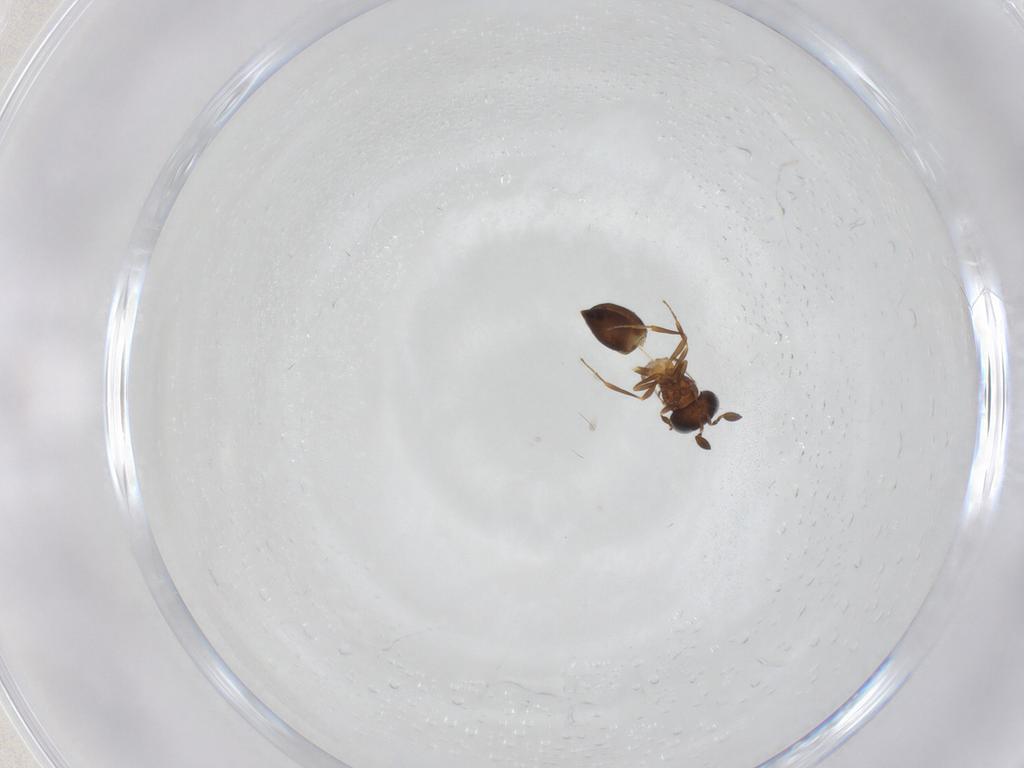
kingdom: Animalia
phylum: Arthropoda
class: Insecta
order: Hymenoptera
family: Scelionidae
